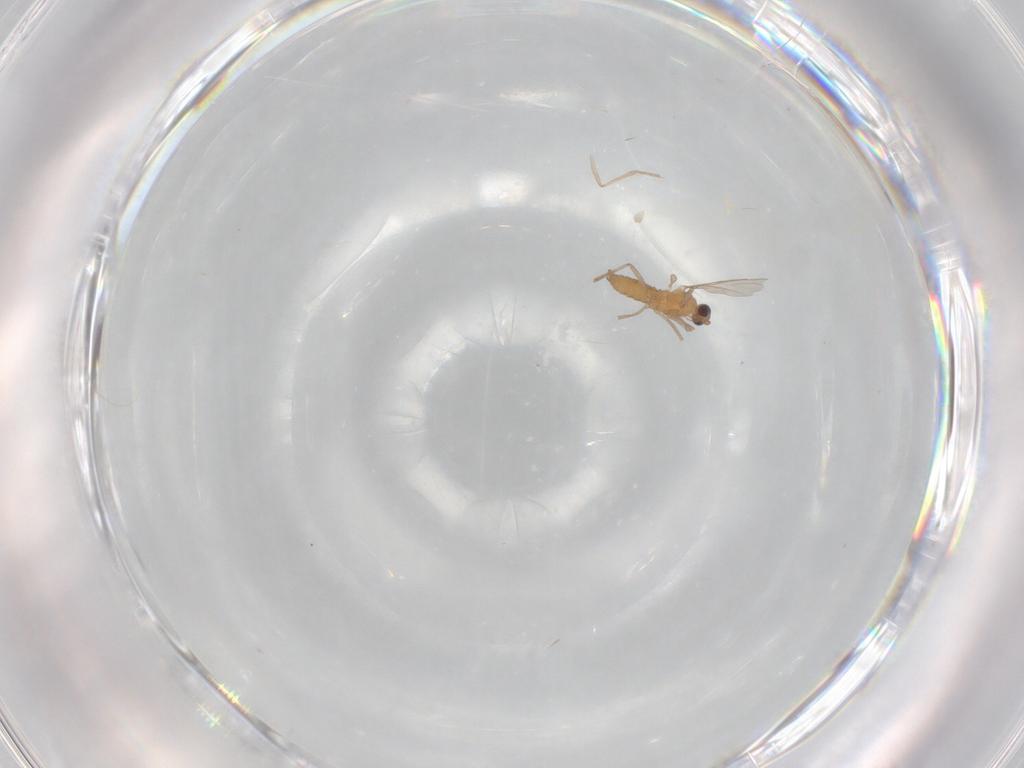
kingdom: Animalia
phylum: Arthropoda
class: Insecta
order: Diptera
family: Cecidomyiidae
